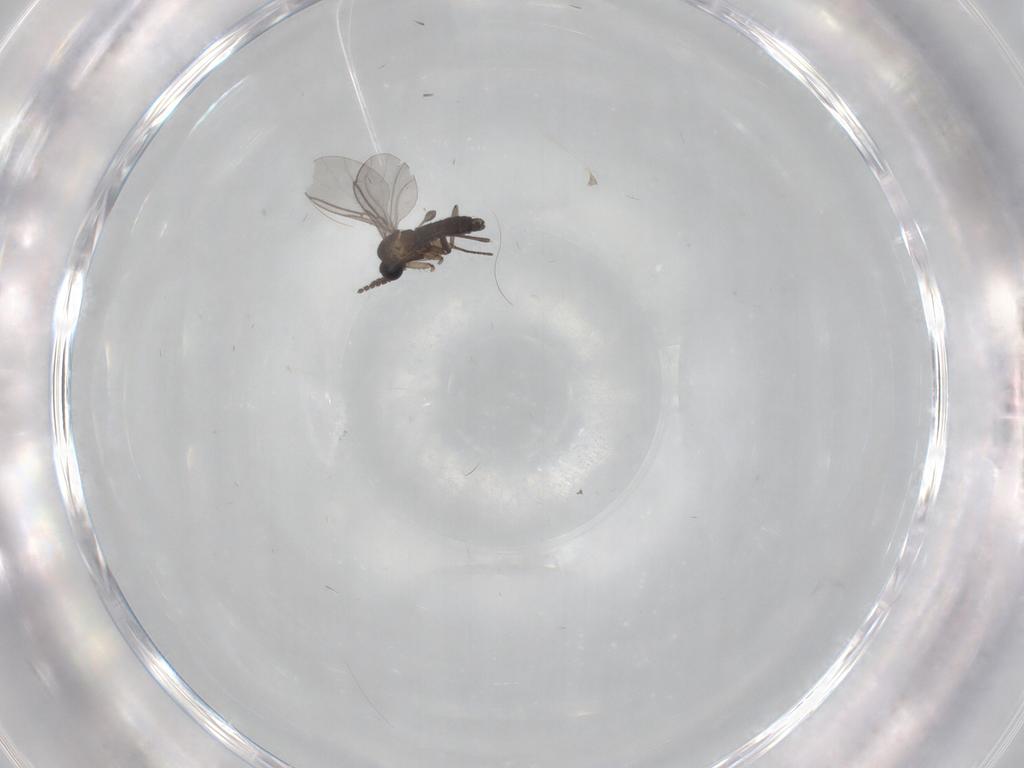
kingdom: Animalia
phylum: Arthropoda
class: Insecta
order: Diptera
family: Sciaridae
